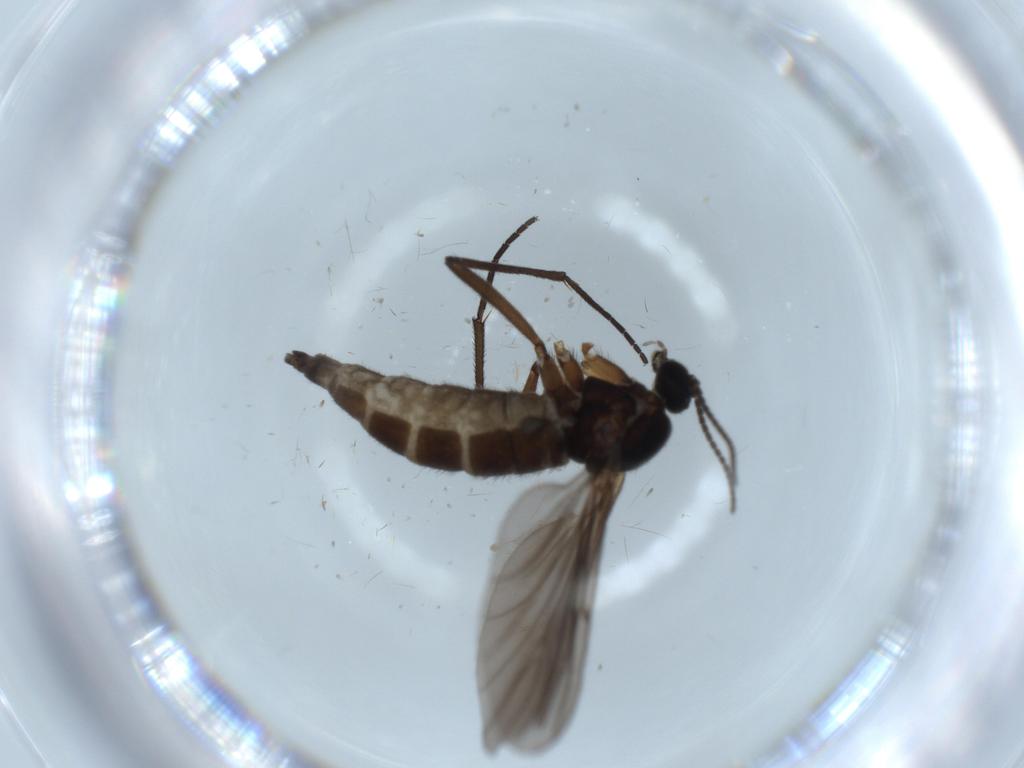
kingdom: Animalia
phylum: Arthropoda
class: Insecta
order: Diptera
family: Sciaridae
